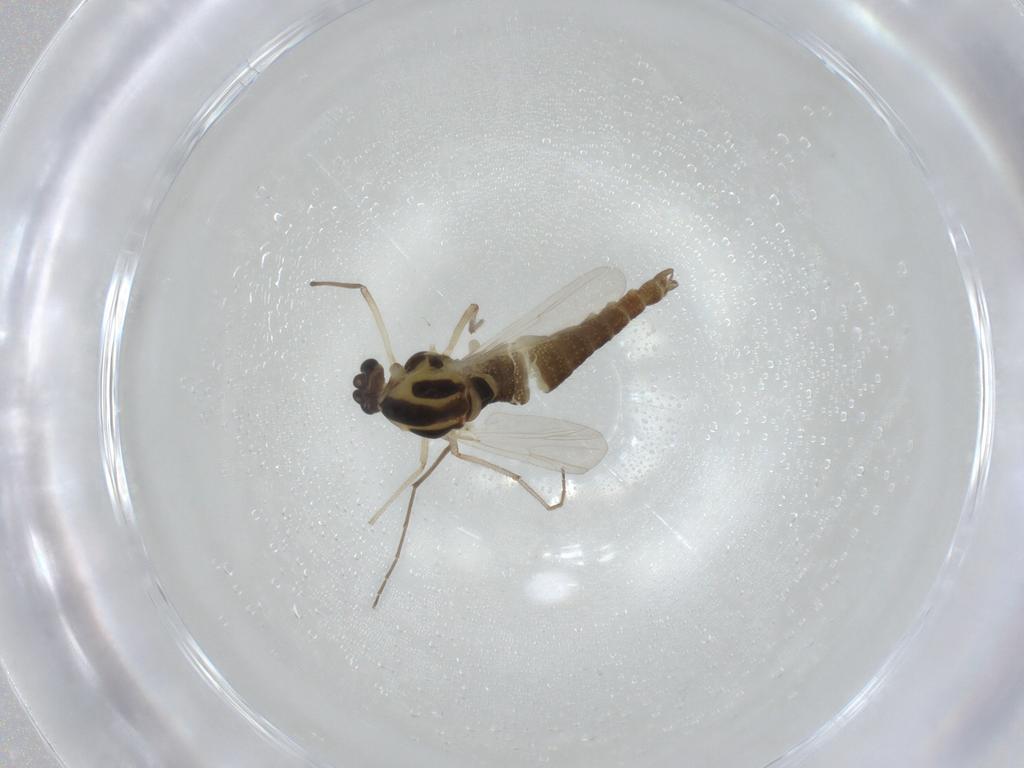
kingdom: Animalia
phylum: Arthropoda
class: Insecta
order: Diptera
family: Chironomidae
